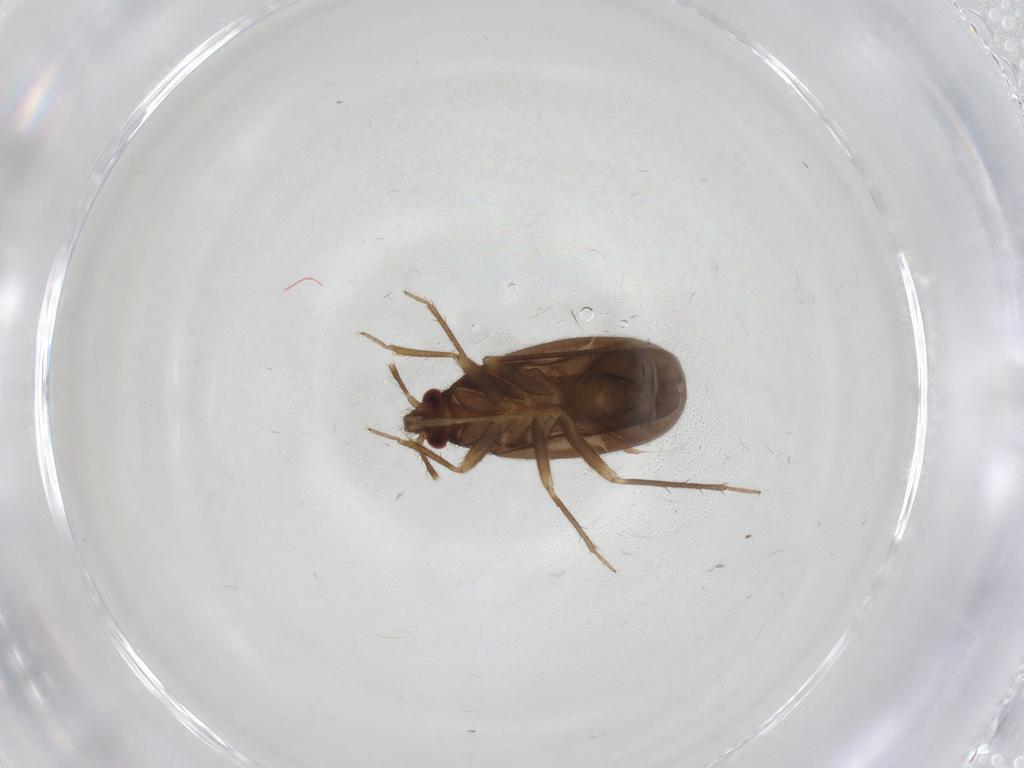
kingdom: Animalia
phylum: Arthropoda
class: Insecta
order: Hemiptera
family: Ceratocombidae
